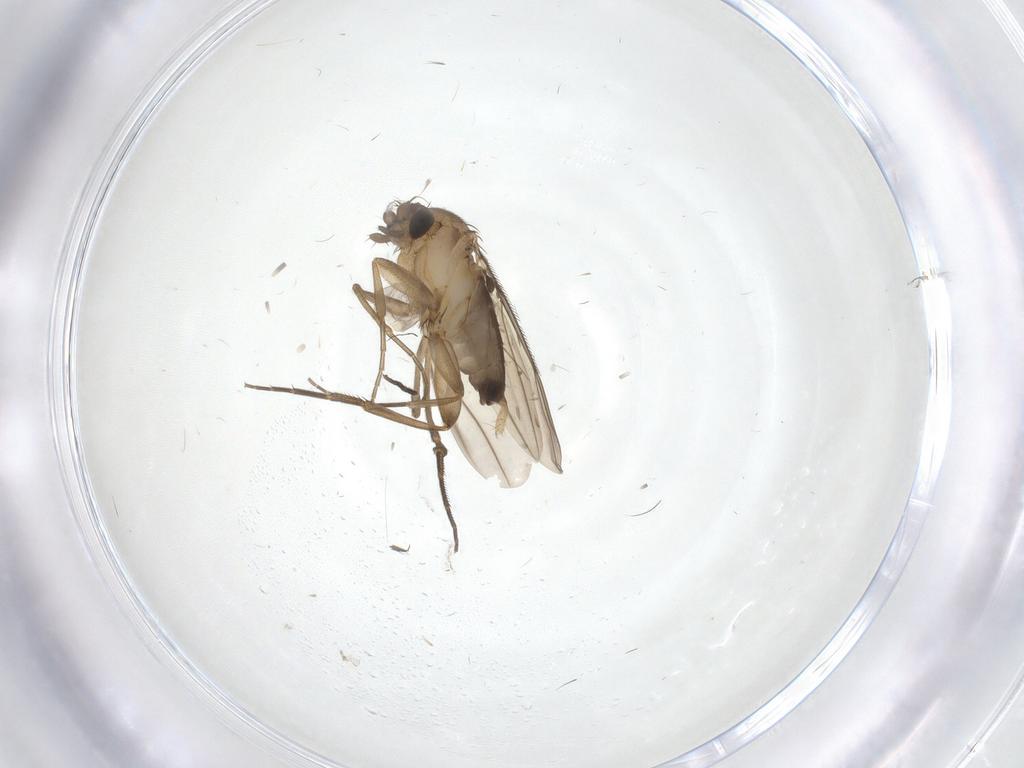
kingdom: Animalia
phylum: Arthropoda
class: Insecta
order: Diptera
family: Phoridae
